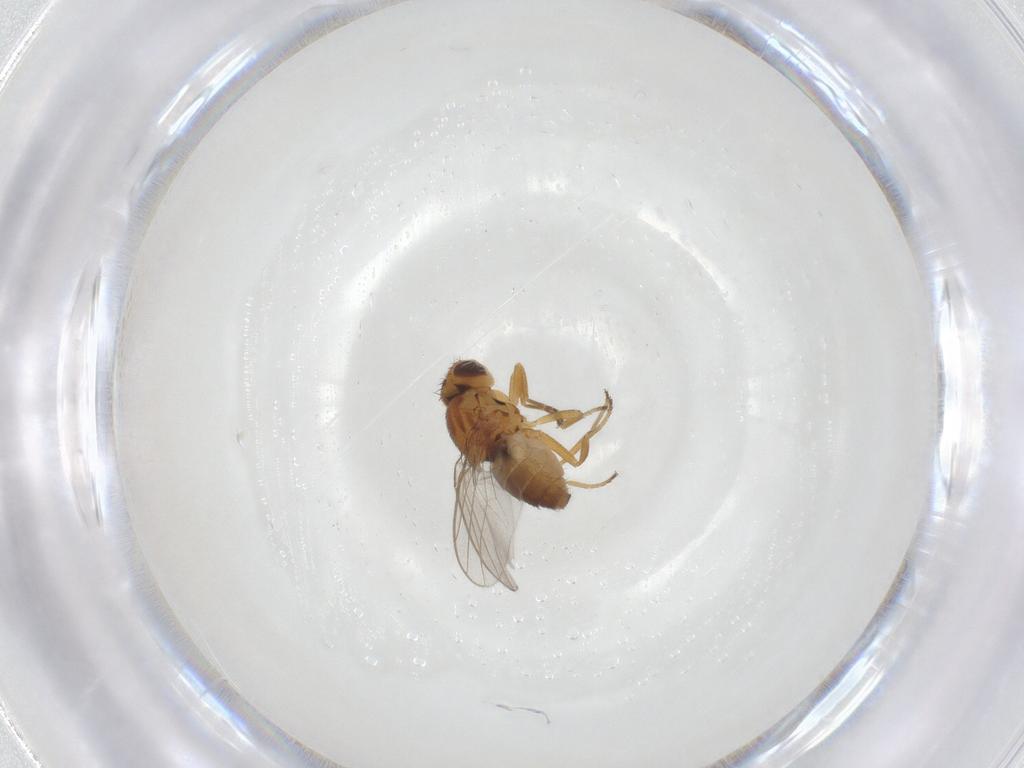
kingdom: Animalia
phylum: Arthropoda
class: Insecta
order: Diptera
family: Chloropidae
